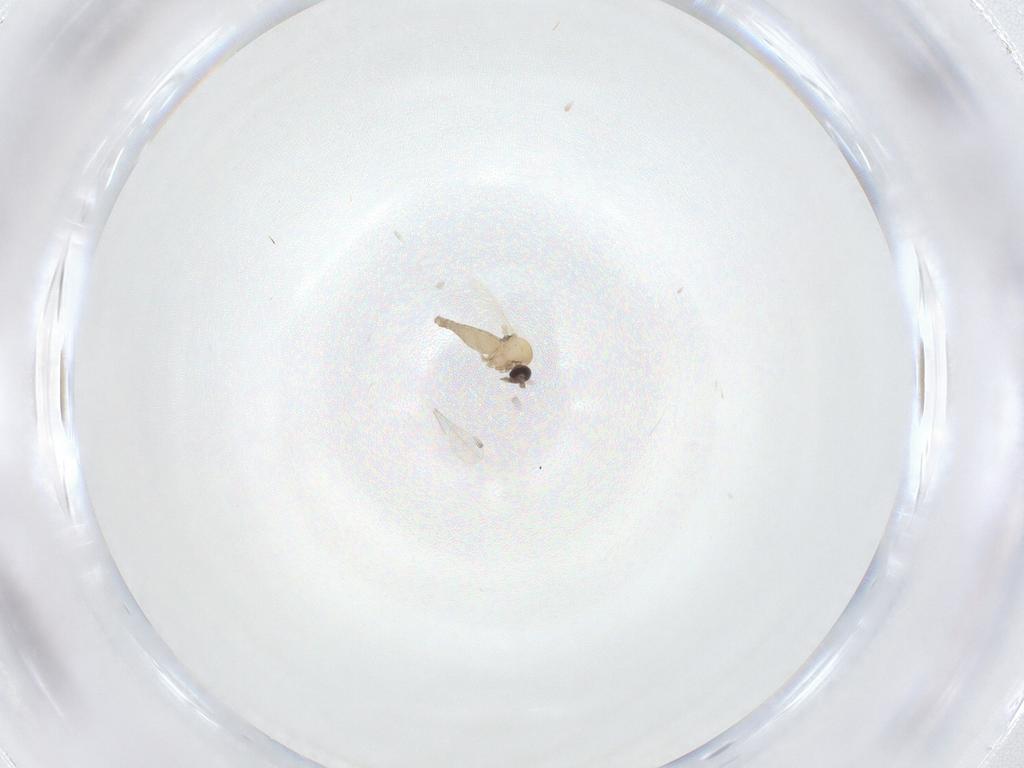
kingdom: Animalia
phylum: Arthropoda
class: Insecta
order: Diptera
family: Ceratopogonidae
